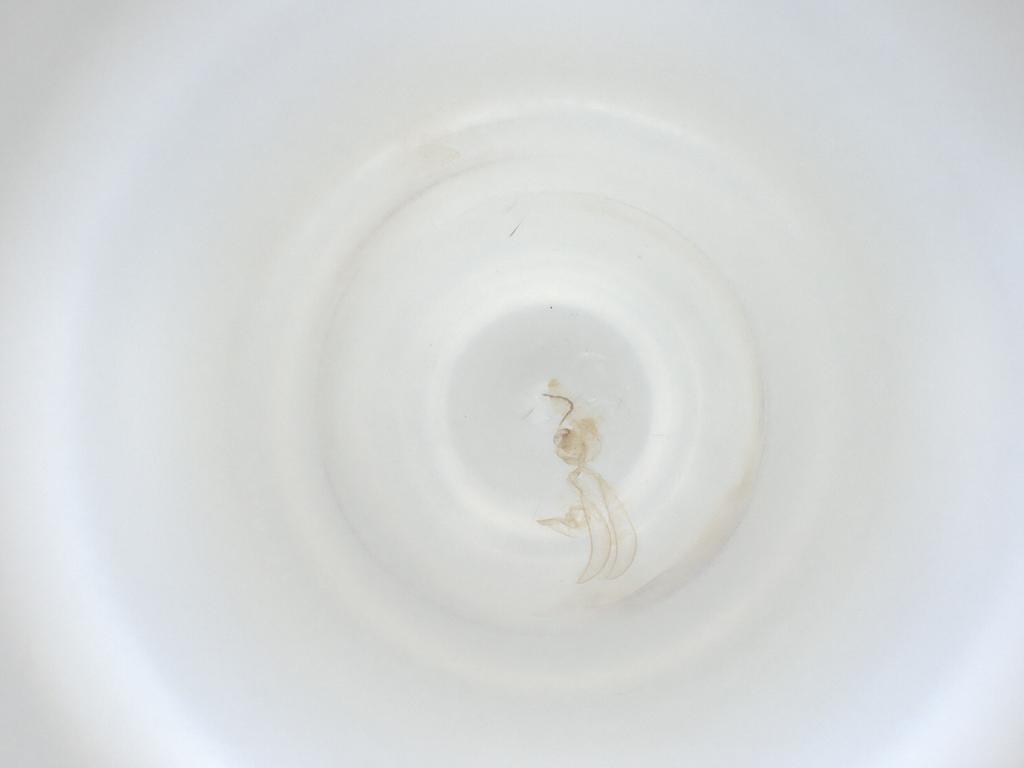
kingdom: Animalia
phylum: Arthropoda
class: Insecta
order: Diptera
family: Cecidomyiidae
